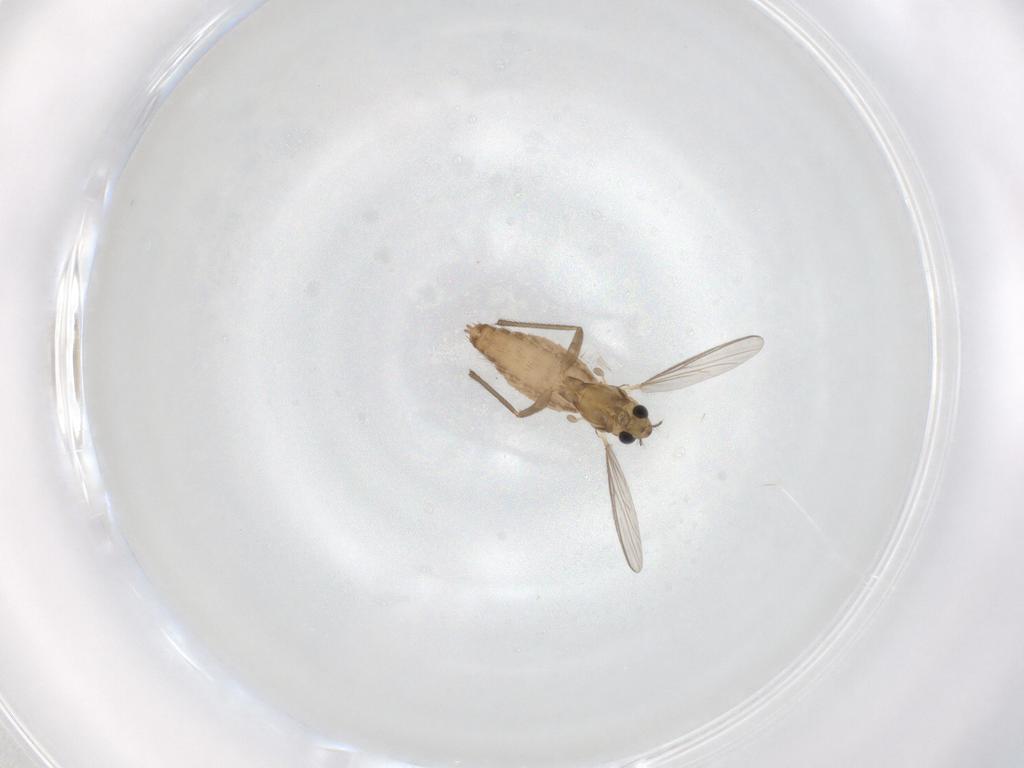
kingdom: Animalia
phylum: Arthropoda
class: Insecta
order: Diptera
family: Chironomidae
